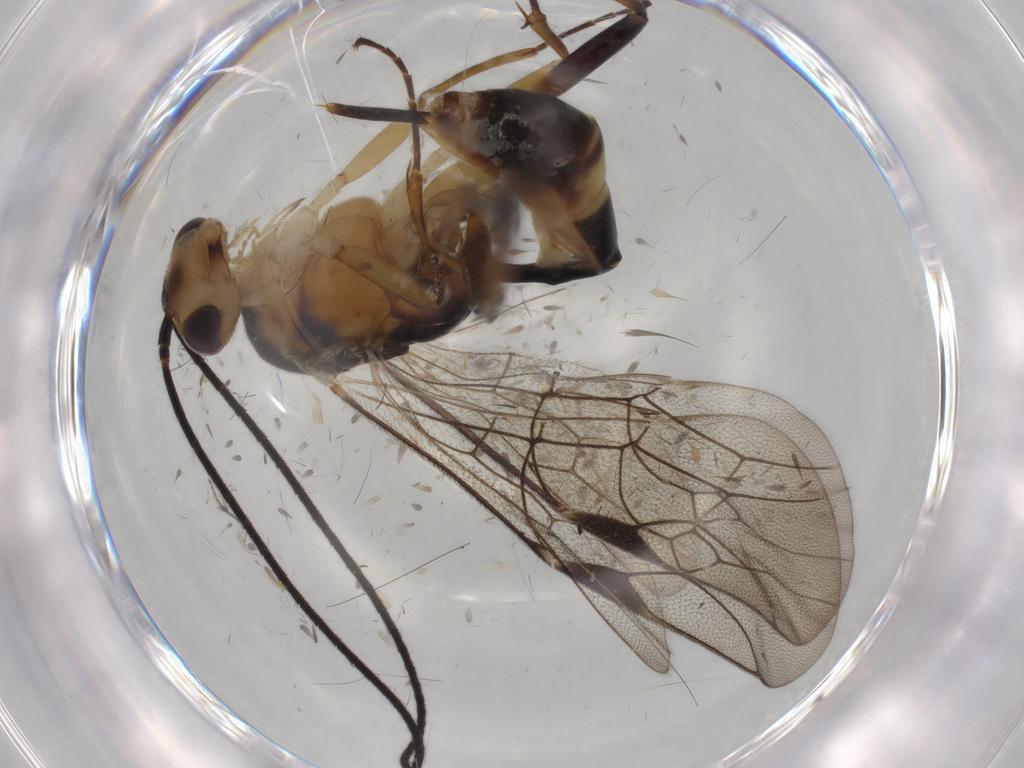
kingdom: Animalia
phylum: Arthropoda
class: Insecta
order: Hymenoptera
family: Ichneumonidae
